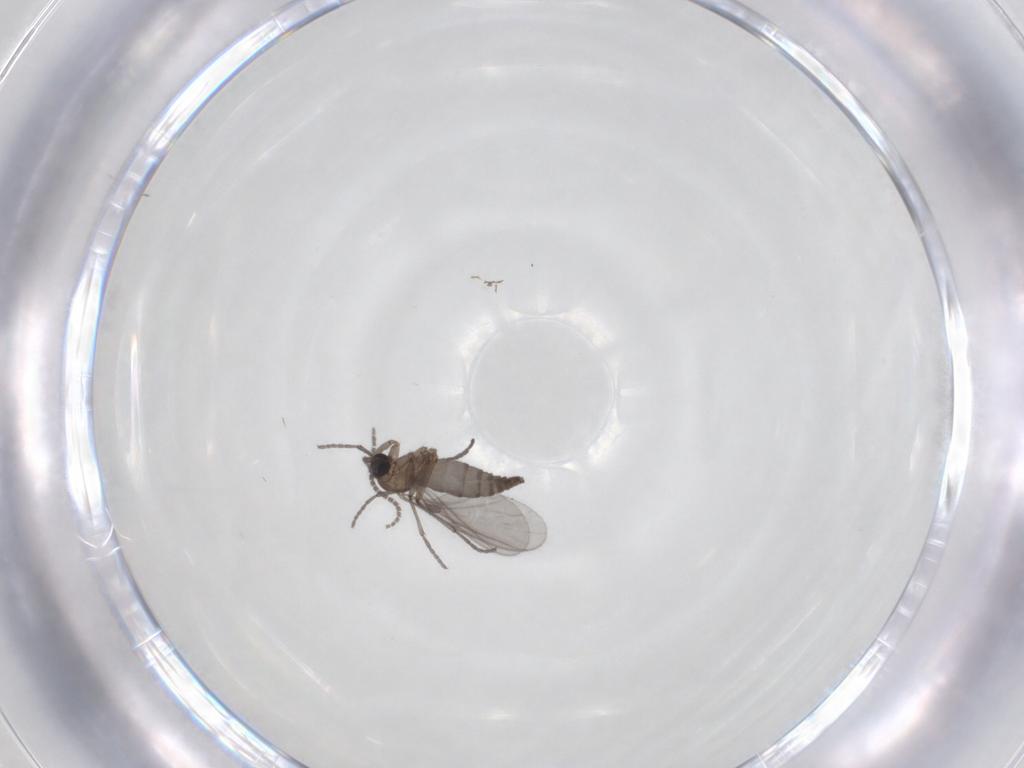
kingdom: Animalia
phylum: Arthropoda
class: Insecta
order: Diptera
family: Sciaridae
